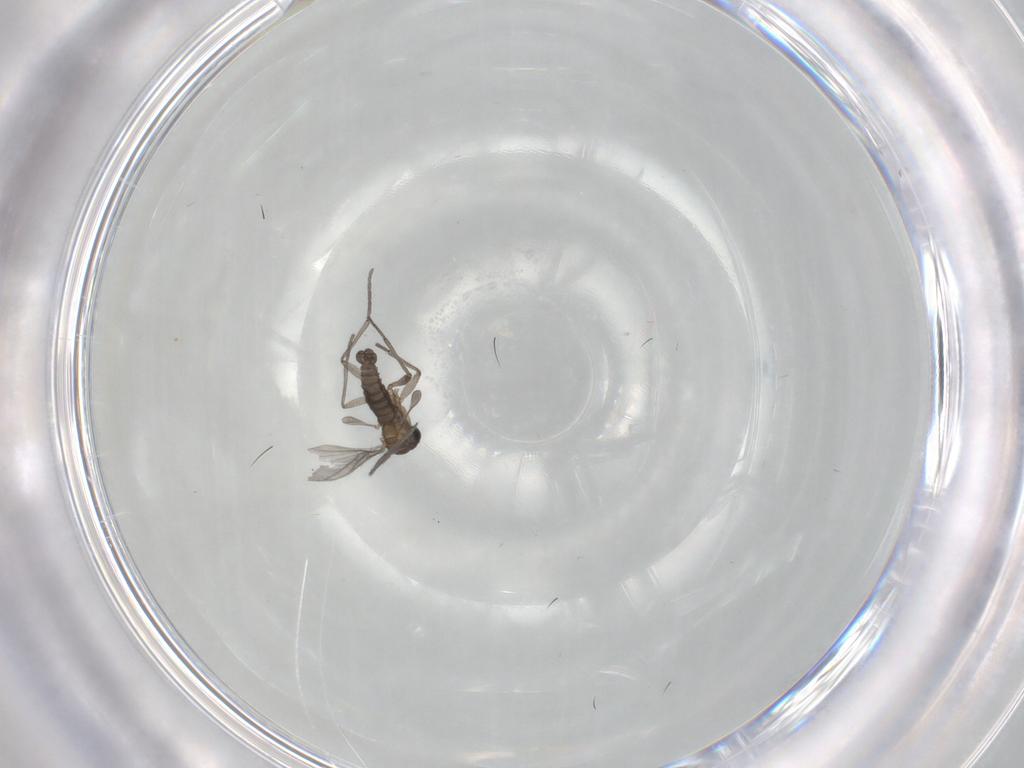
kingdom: Animalia
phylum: Arthropoda
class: Insecta
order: Diptera
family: Sciaridae
